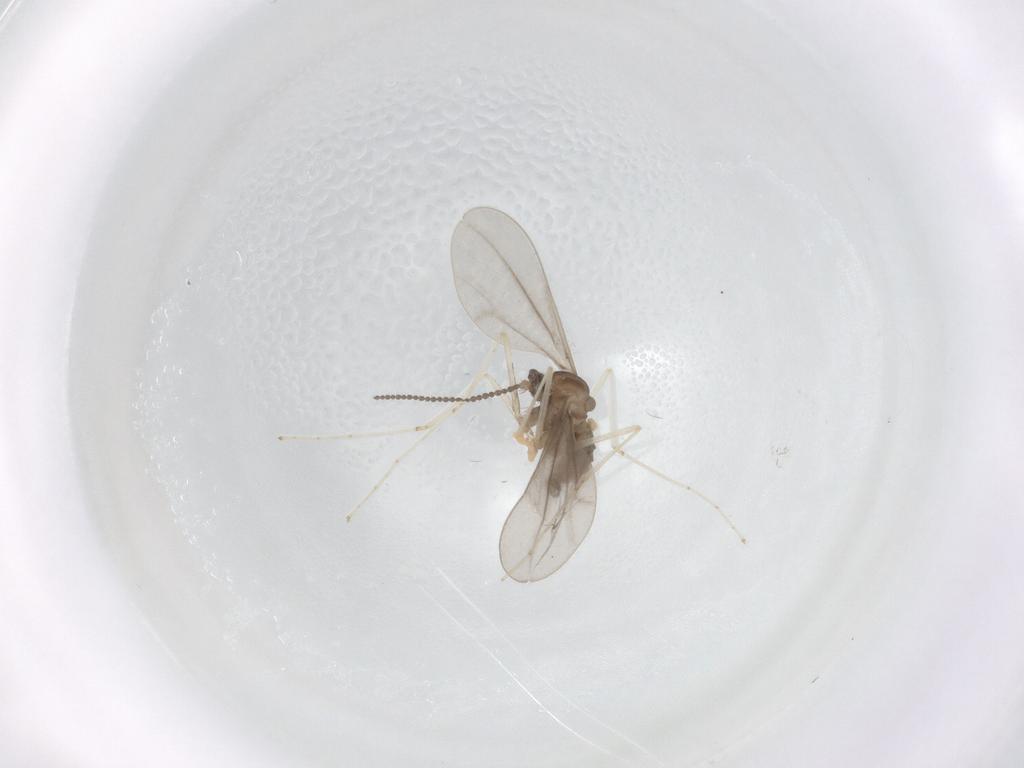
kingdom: Animalia
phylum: Arthropoda
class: Insecta
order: Diptera
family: Cecidomyiidae
